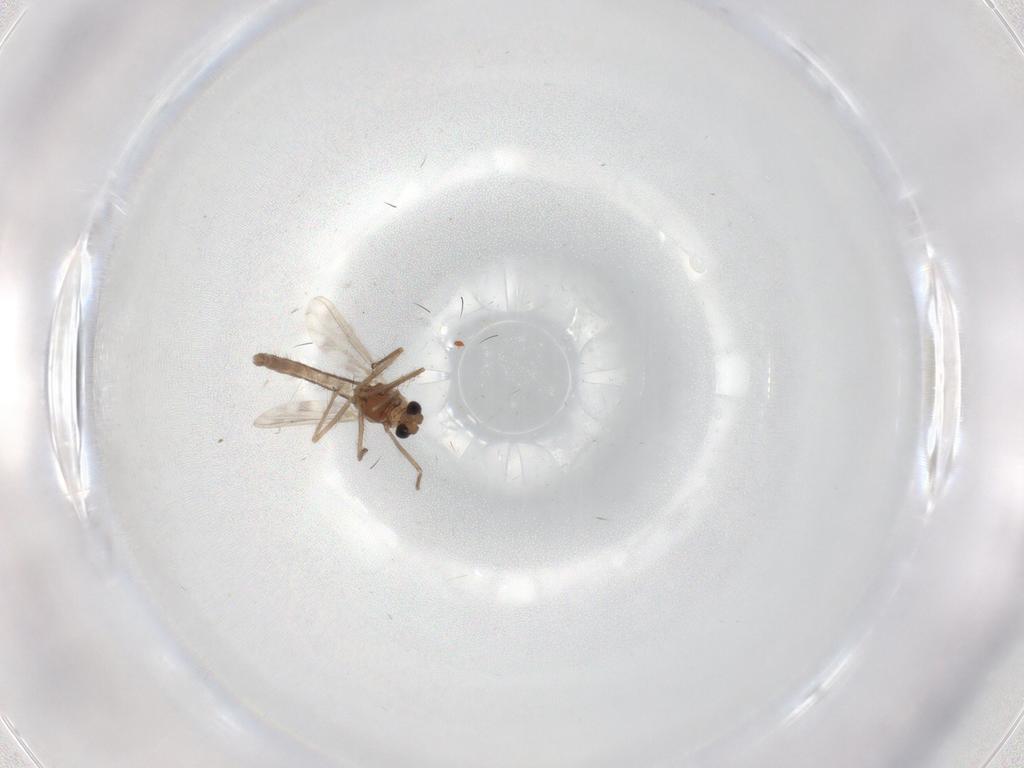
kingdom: Animalia
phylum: Arthropoda
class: Insecta
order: Diptera
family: Chironomidae
